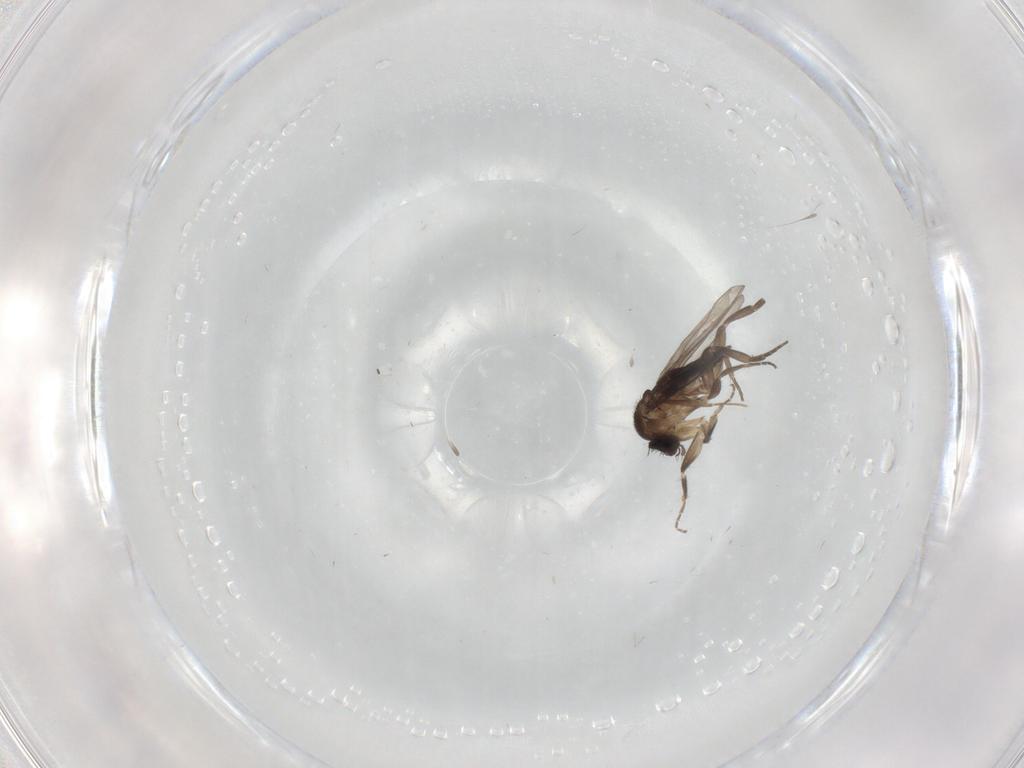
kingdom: Animalia
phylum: Arthropoda
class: Insecta
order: Diptera
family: Phoridae
